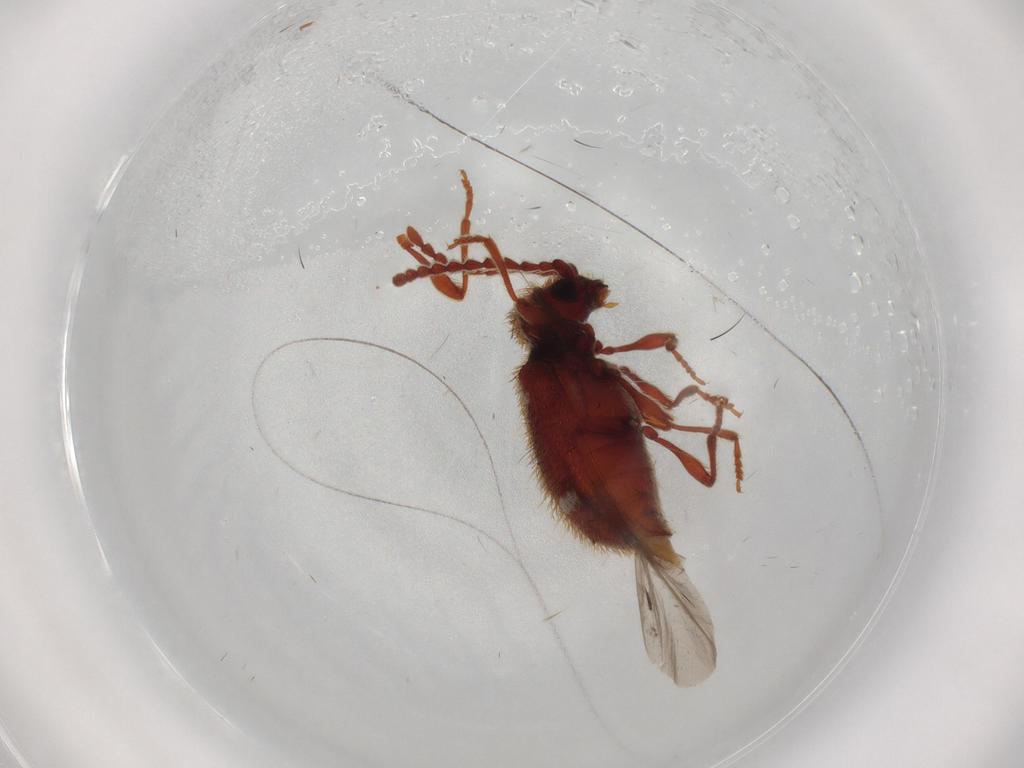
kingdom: Animalia
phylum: Arthropoda
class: Insecta
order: Coleoptera
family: Ptinidae
